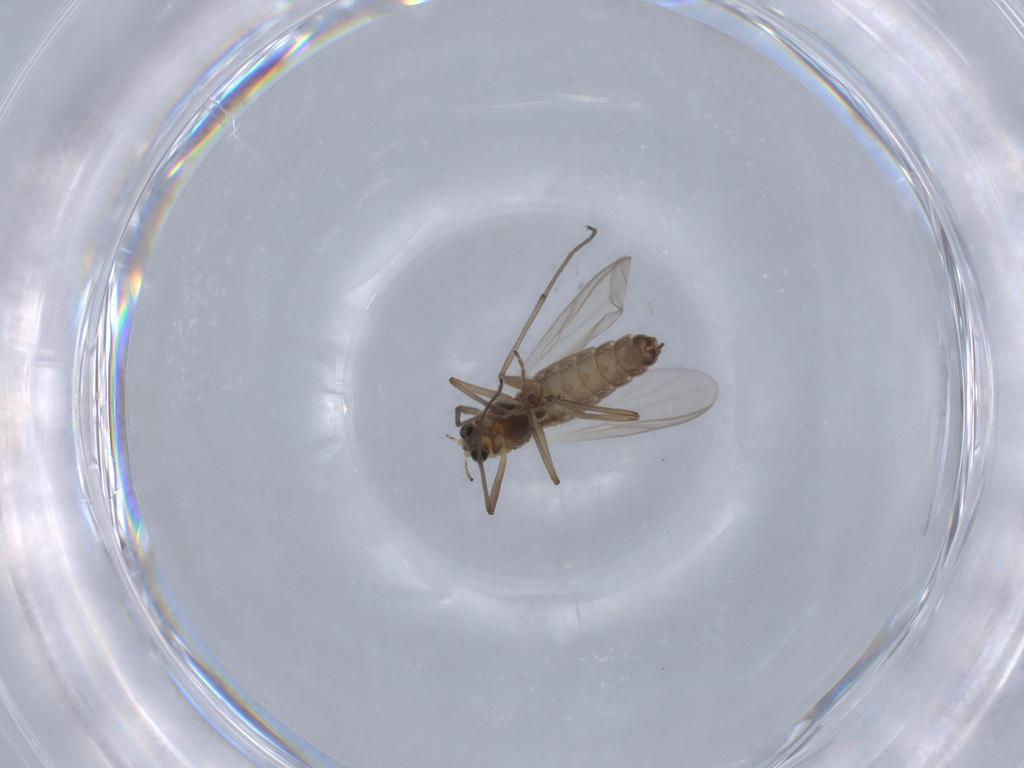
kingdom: Animalia
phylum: Arthropoda
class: Insecta
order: Diptera
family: Chironomidae
